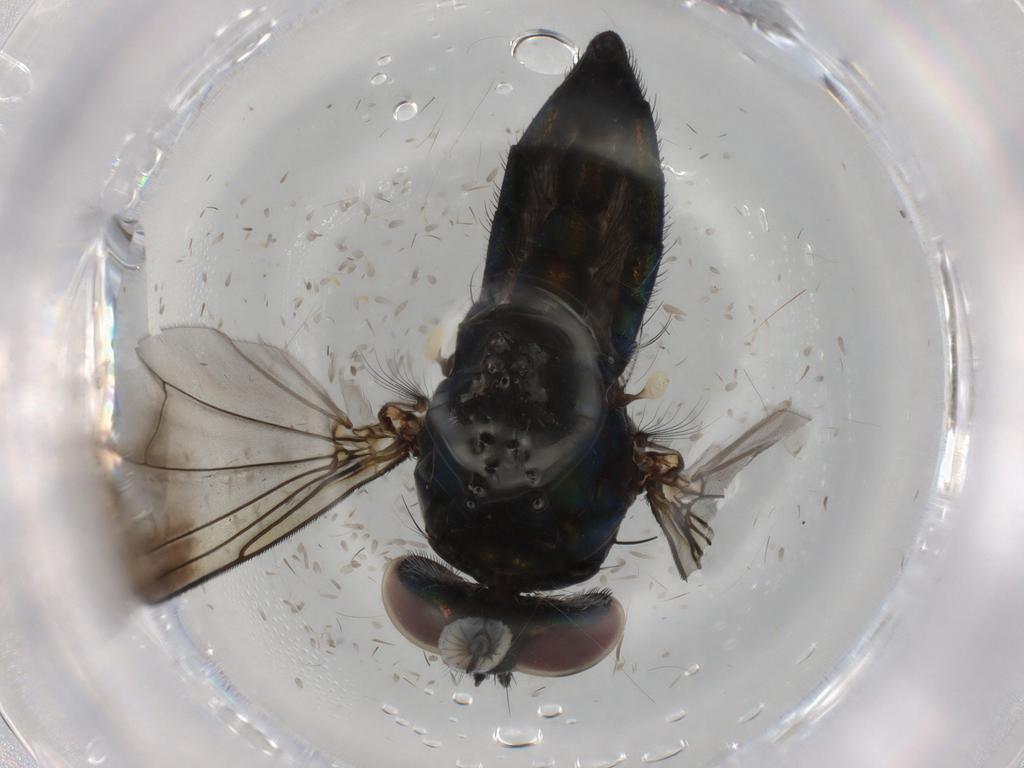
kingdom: Animalia
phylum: Arthropoda
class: Insecta
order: Diptera
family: Dolichopodidae
